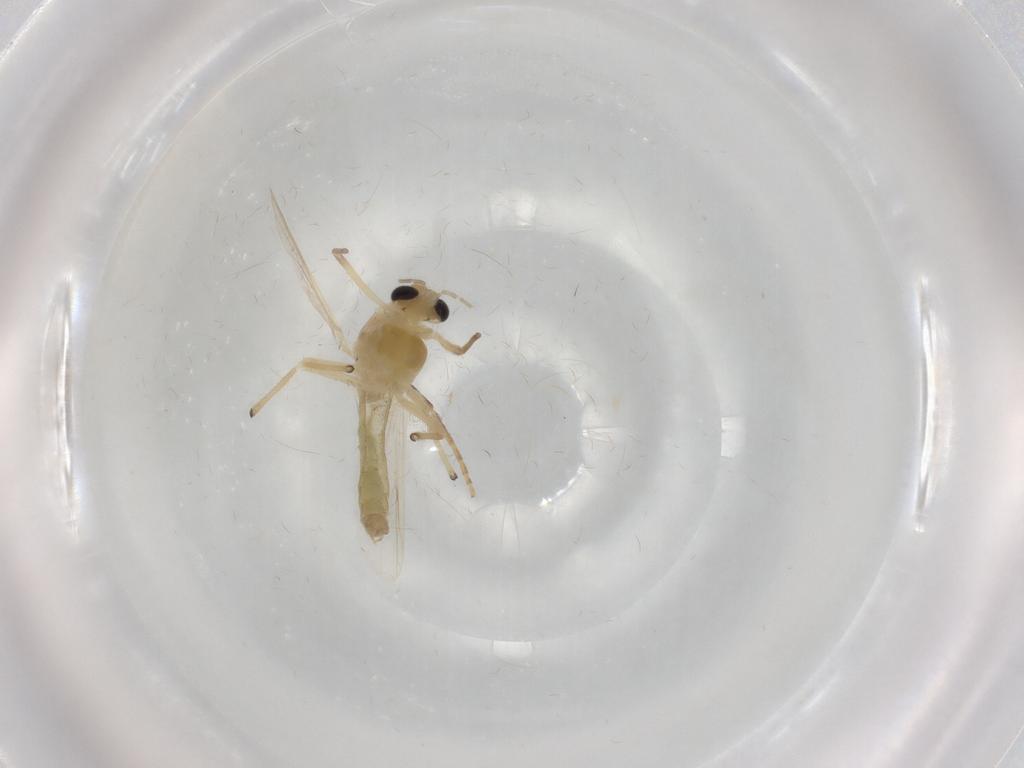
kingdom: Animalia
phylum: Arthropoda
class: Insecta
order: Diptera
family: Chironomidae
